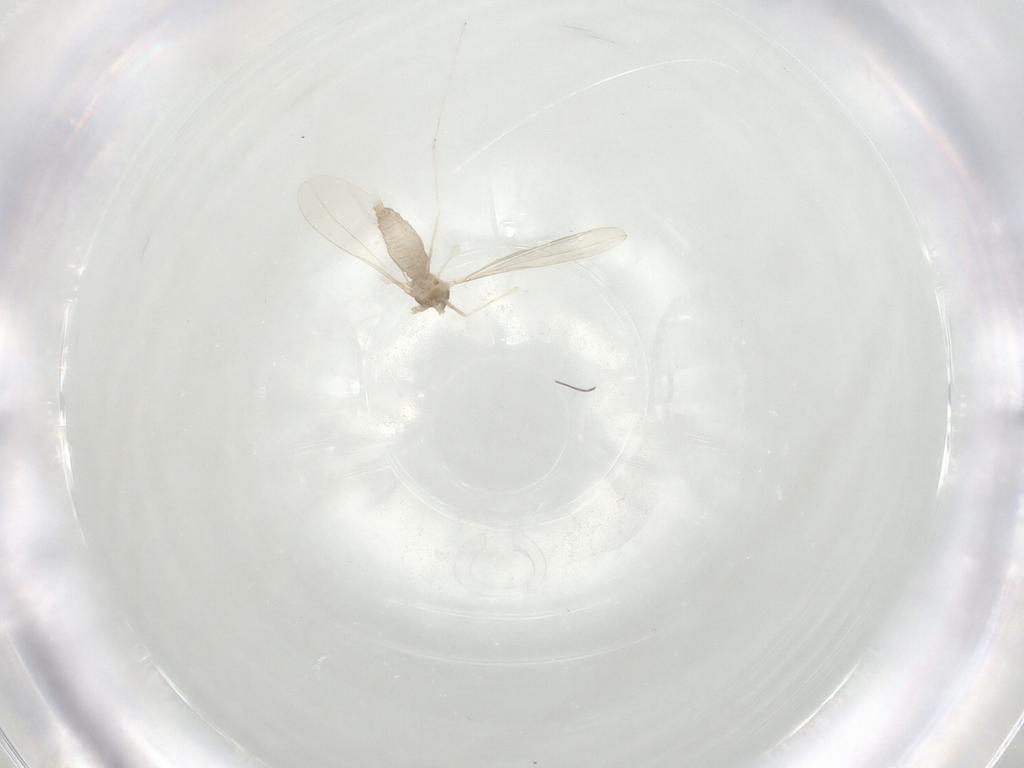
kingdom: Animalia
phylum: Arthropoda
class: Insecta
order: Diptera
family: Cecidomyiidae
